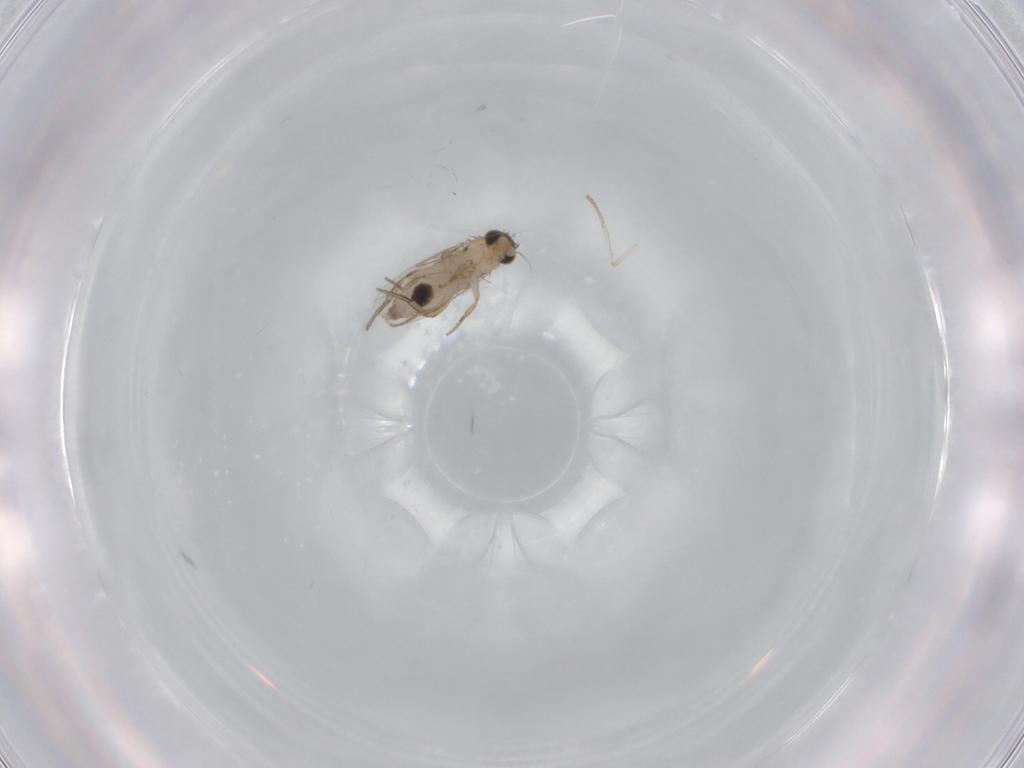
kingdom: Animalia
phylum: Arthropoda
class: Insecta
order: Diptera
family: Phoridae
